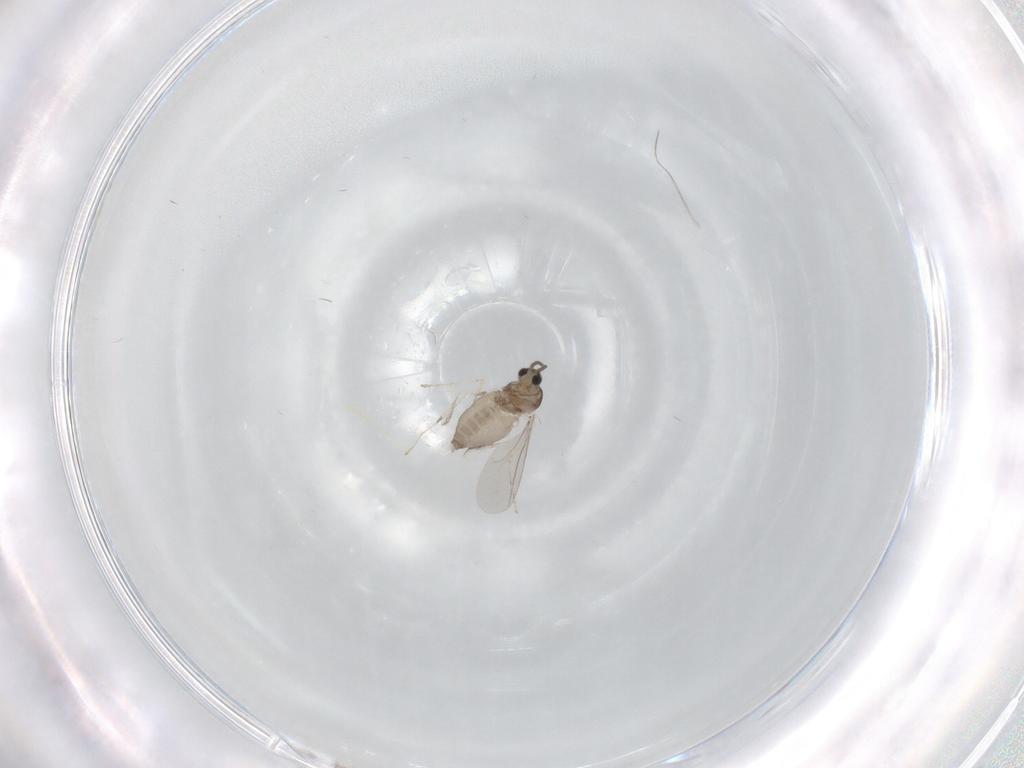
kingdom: Animalia
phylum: Arthropoda
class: Insecta
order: Diptera
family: Cecidomyiidae
